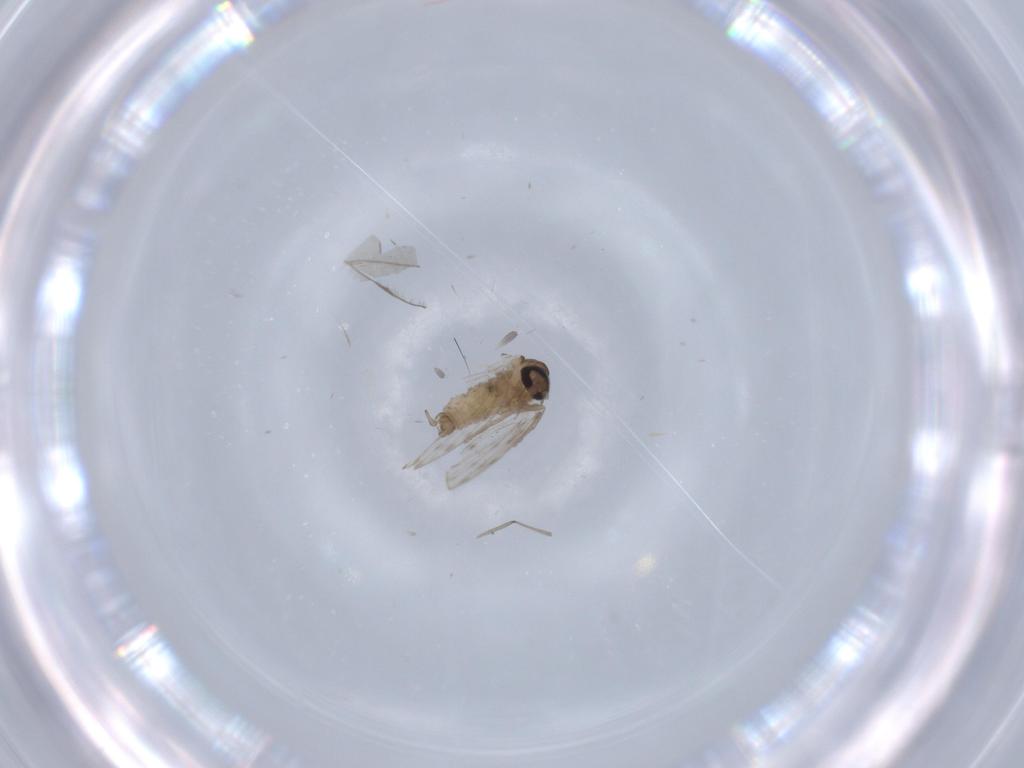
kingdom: Animalia
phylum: Arthropoda
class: Insecta
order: Diptera
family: Cecidomyiidae
